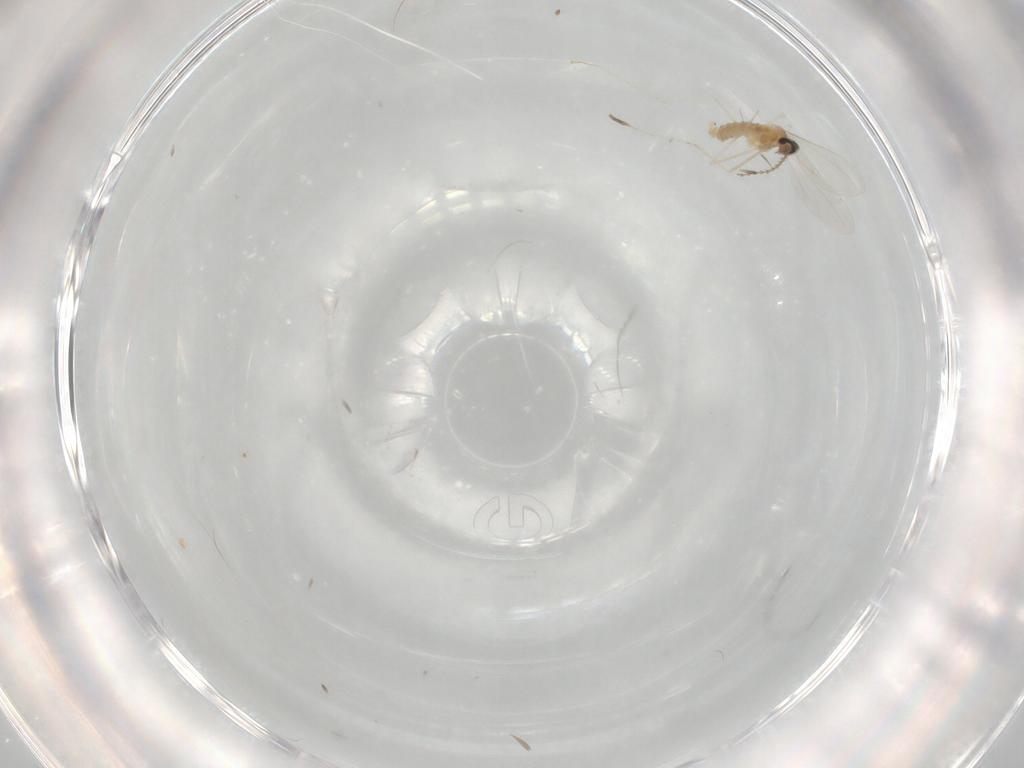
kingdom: Animalia
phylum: Arthropoda
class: Insecta
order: Diptera
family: Chironomidae
